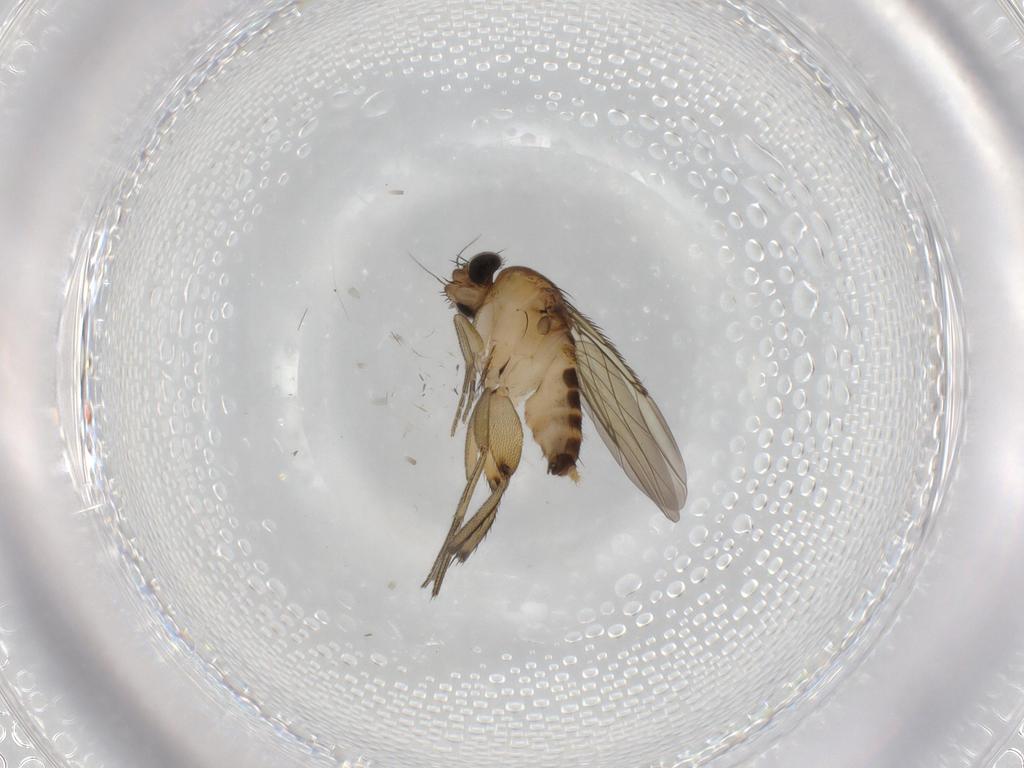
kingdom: Animalia
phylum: Arthropoda
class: Insecta
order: Diptera
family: Phoridae
